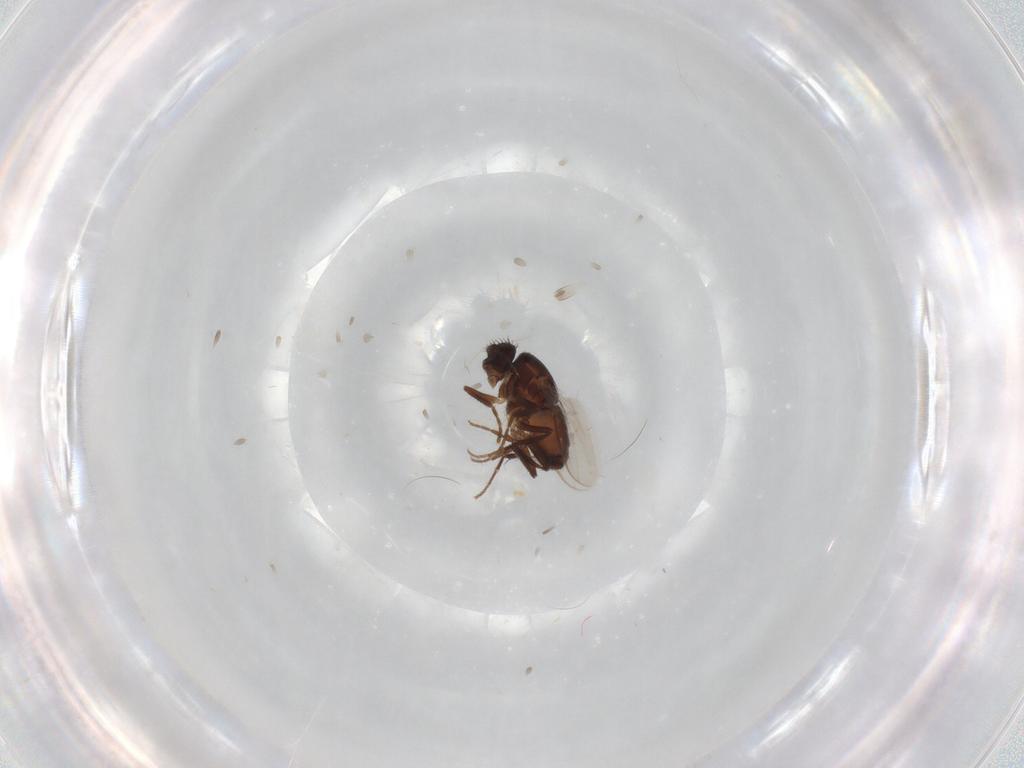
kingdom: Animalia
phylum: Arthropoda
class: Insecta
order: Diptera
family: Sphaeroceridae
